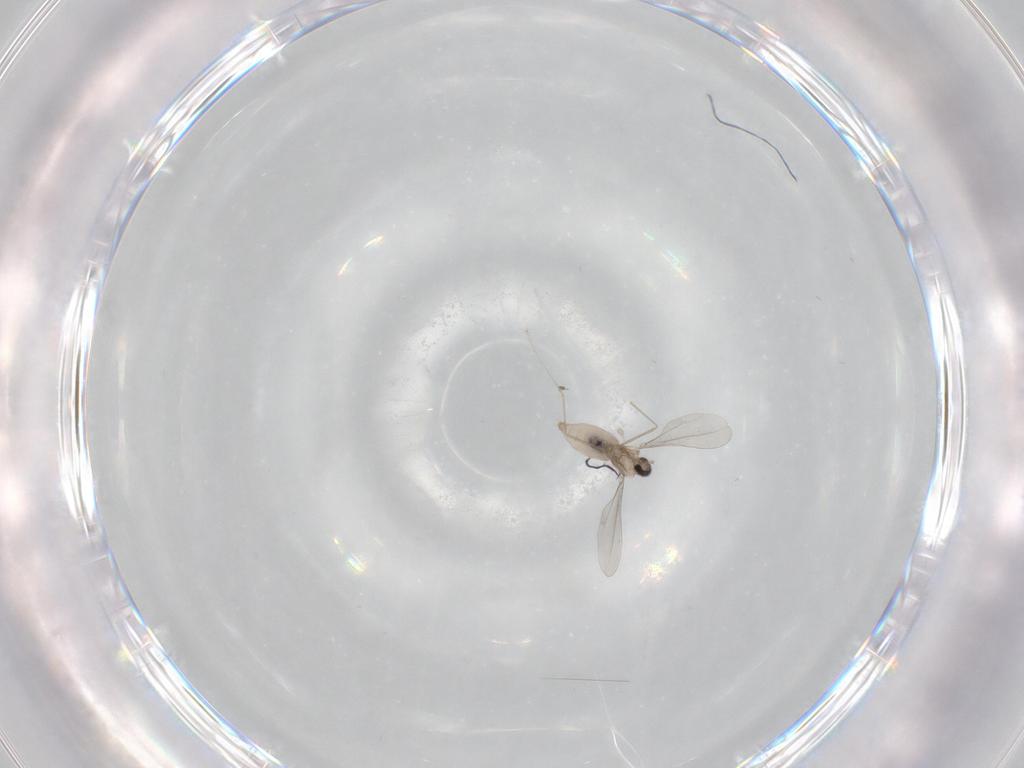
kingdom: Animalia
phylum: Arthropoda
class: Insecta
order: Diptera
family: Cecidomyiidae
